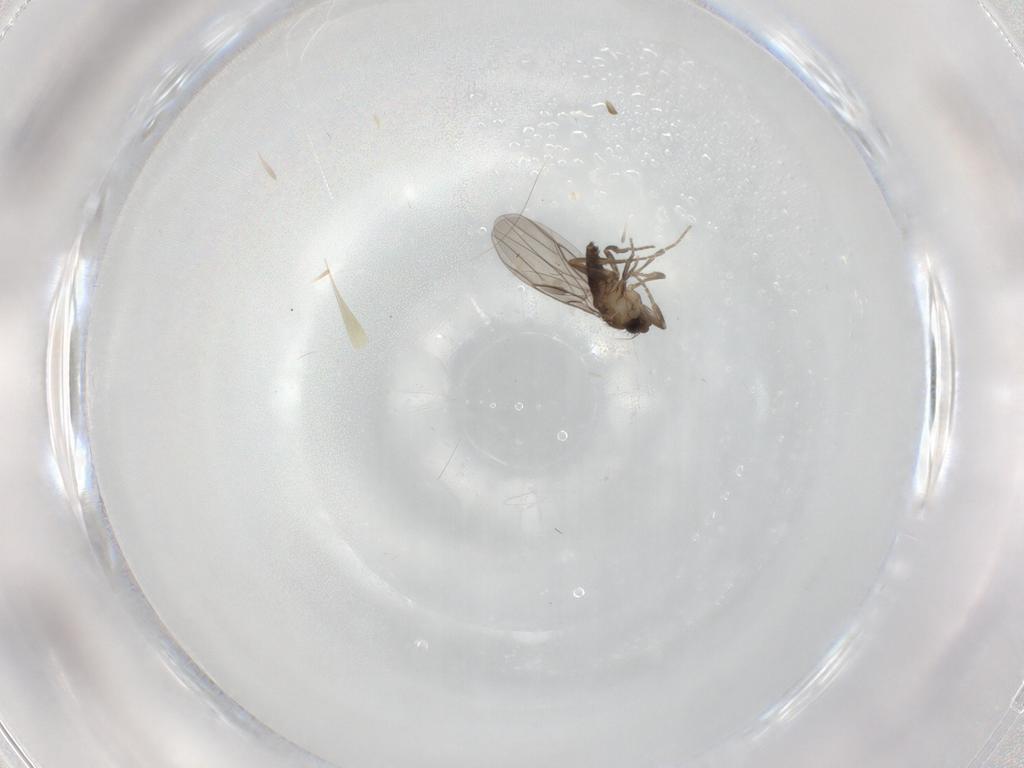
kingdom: Animalia
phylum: Arthropoda
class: Insecta
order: Diptera
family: Phoridae
